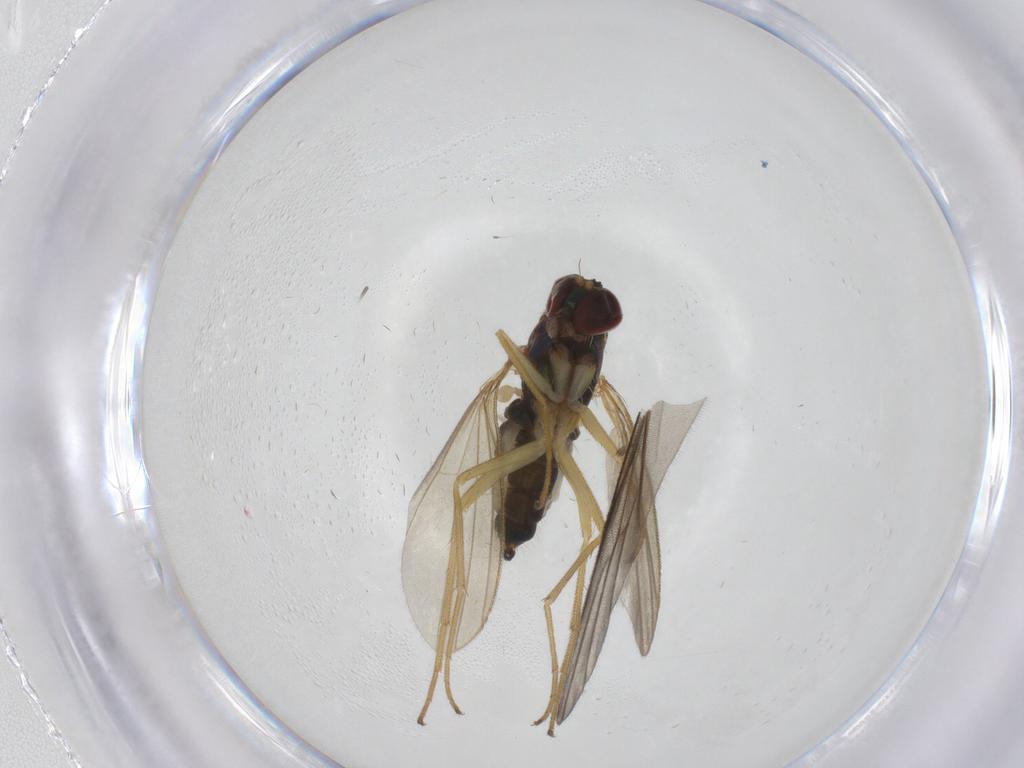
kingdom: Animalia
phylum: Arthropoda
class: Insecta
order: Diptera
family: Dolichopodidae
